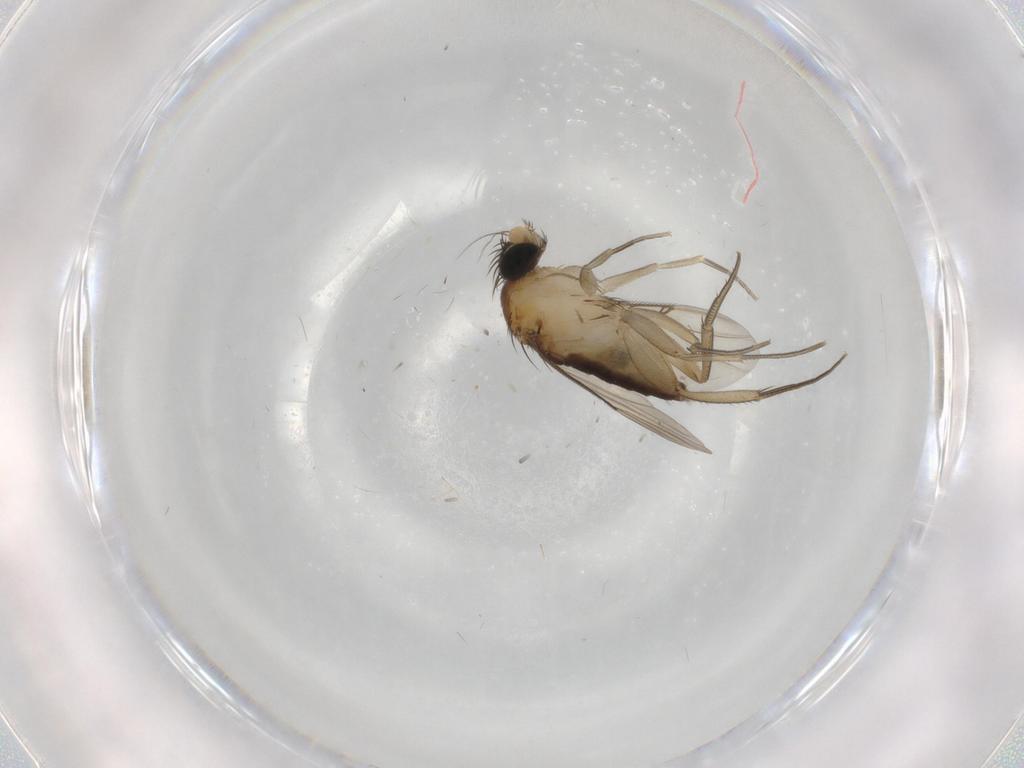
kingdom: Animalia
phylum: Arthropoda
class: Insecta
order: Diptera
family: Phoridae
